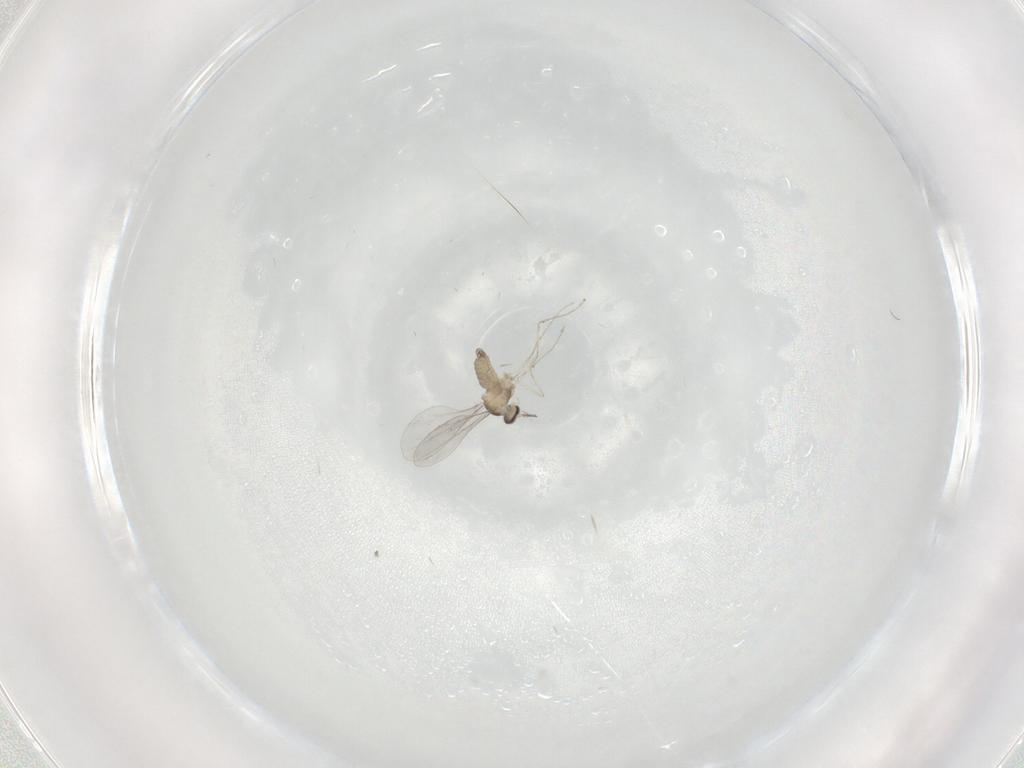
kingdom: Animalia
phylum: Arthropoda
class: Insecta
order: Diptera
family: Cecidomyiidae
